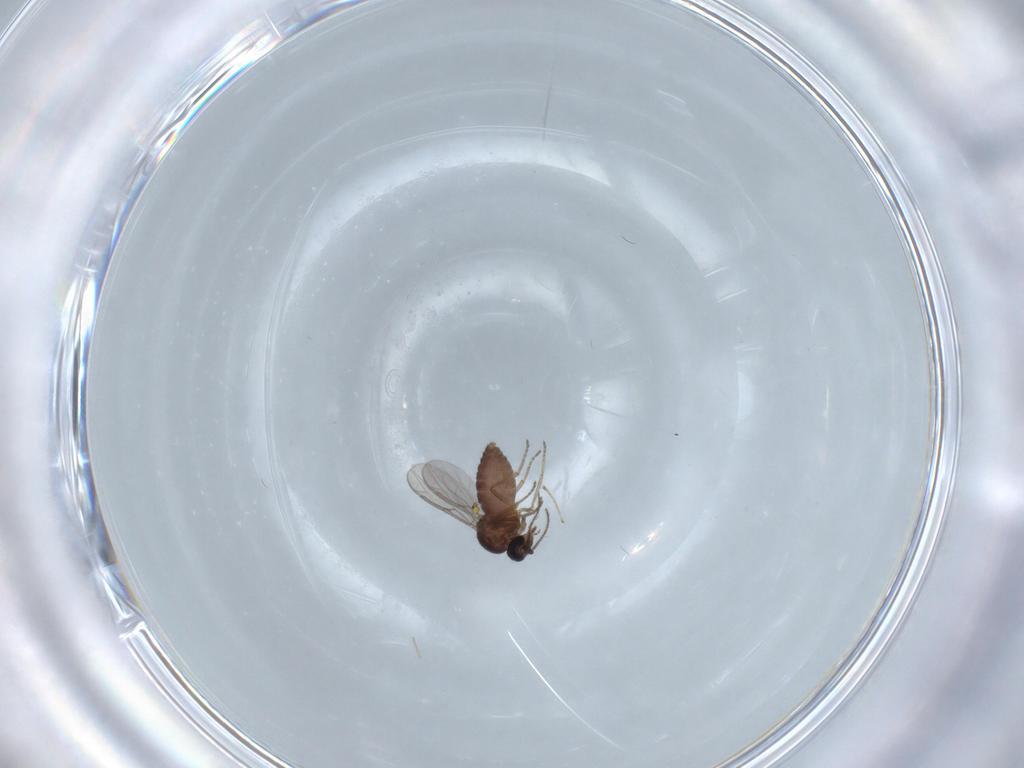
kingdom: Animalia
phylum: Arthropoda
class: Insecta
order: Diptera
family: Ceratopogonidae
